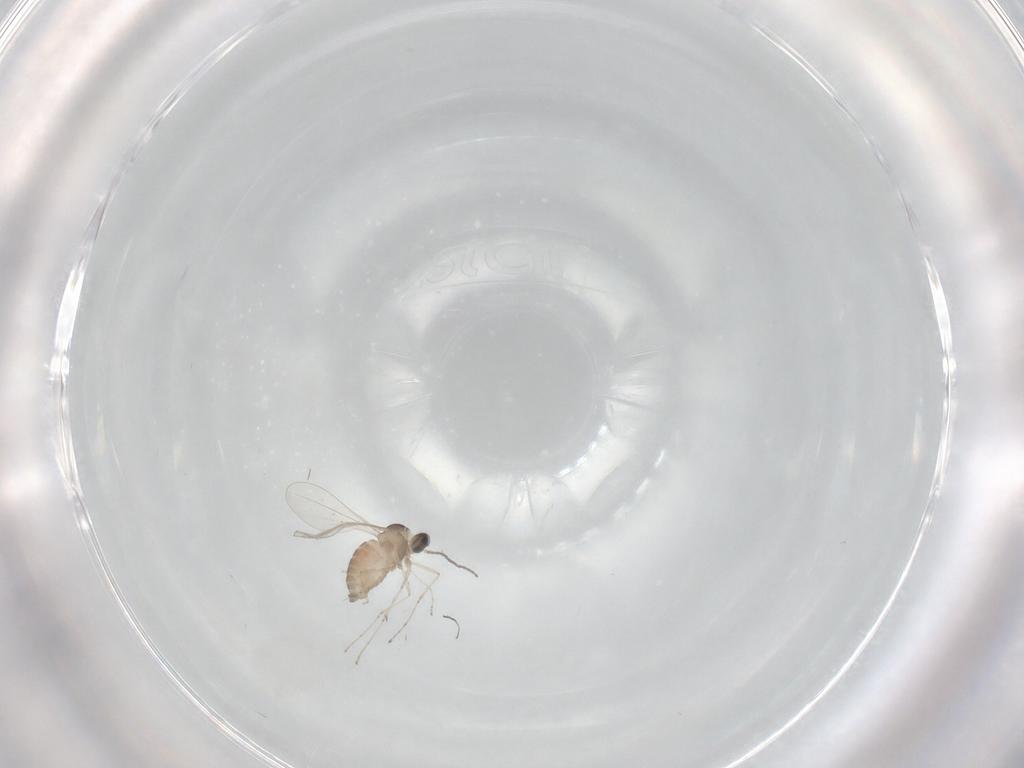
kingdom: Animalia
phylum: Arthropoda
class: Insecta
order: Diptera
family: Cecidomyiidae
